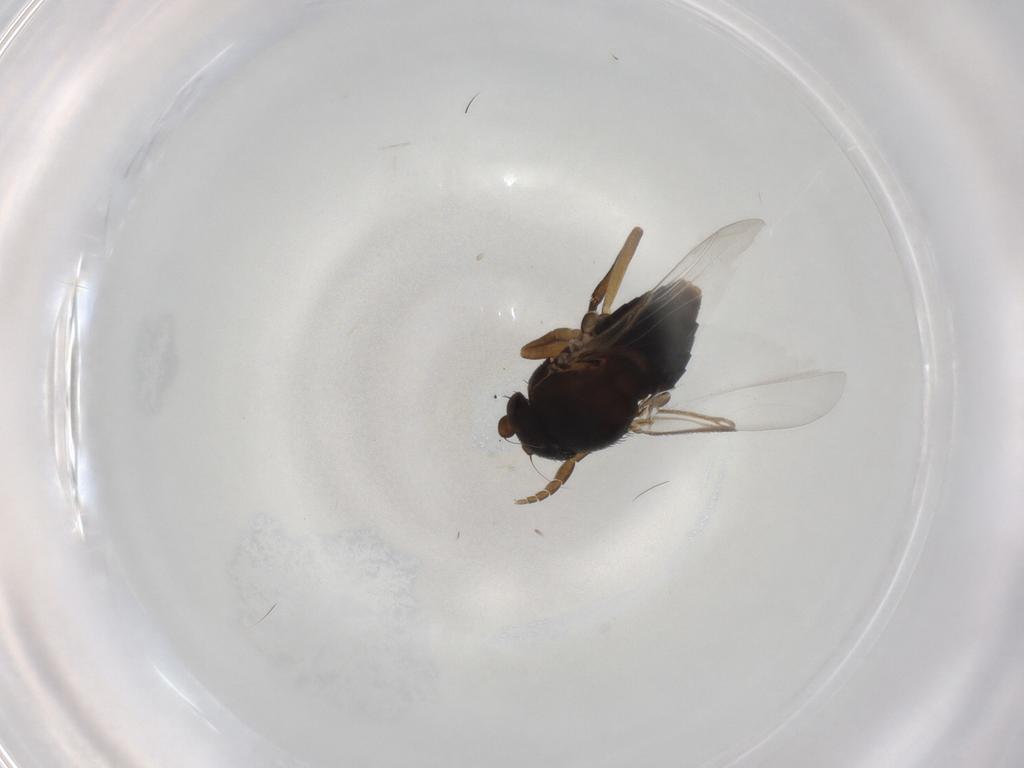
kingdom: Animalia
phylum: Arthropoda
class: Insecta
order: Diptera
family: Phoridae
